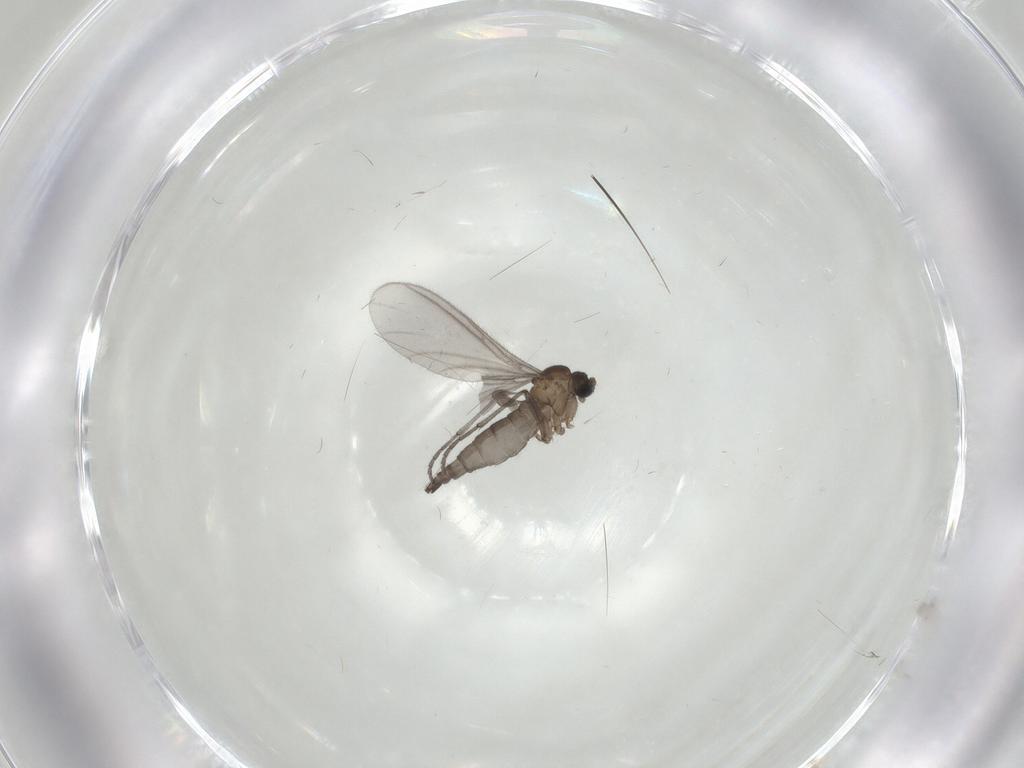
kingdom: Animalia
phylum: Arthropoda
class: Insecta
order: Diptera
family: Sciaridae
